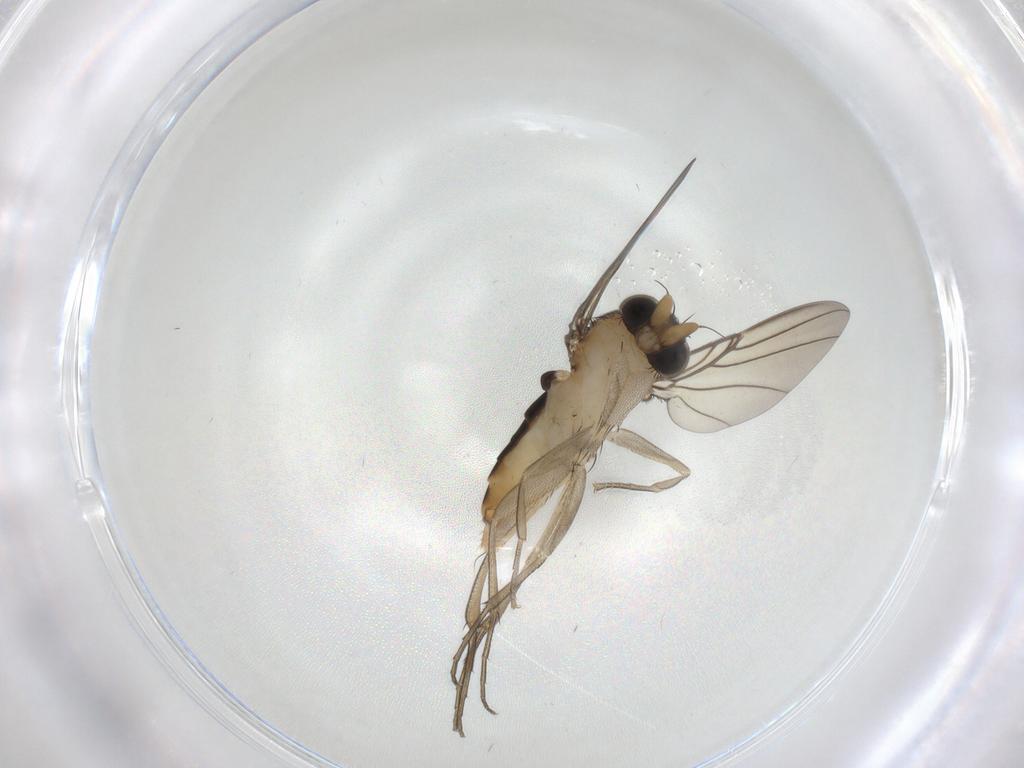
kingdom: Animalia
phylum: Arthropoda
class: Insecta
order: Diptera
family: Phoridae
